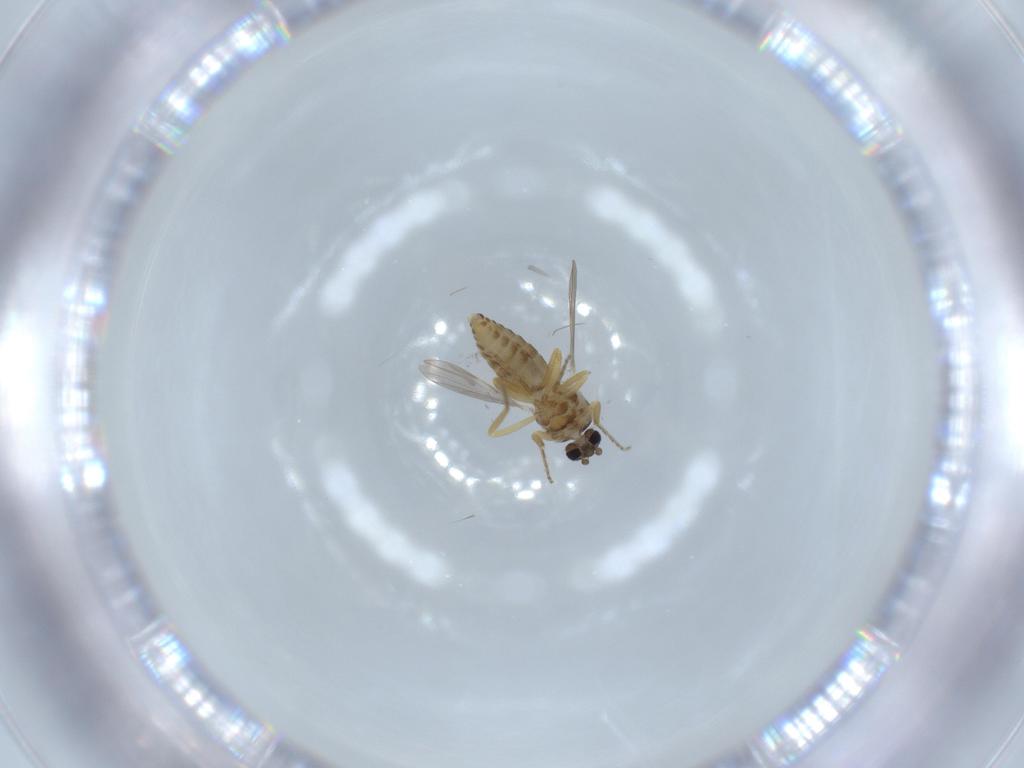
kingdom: Animalia
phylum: Arthropoda
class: Insecta
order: Diptera
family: Ceratopogonidae
